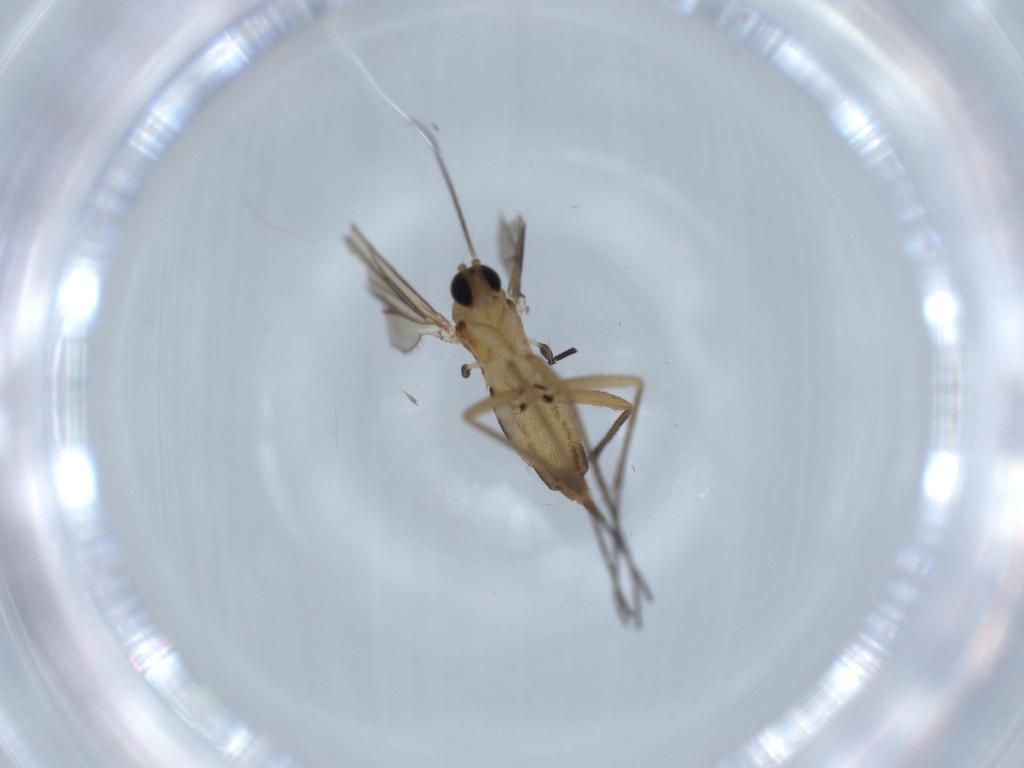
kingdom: Animalia
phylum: Arthropoda
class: Insecta
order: Diptera
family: Sciaridae
